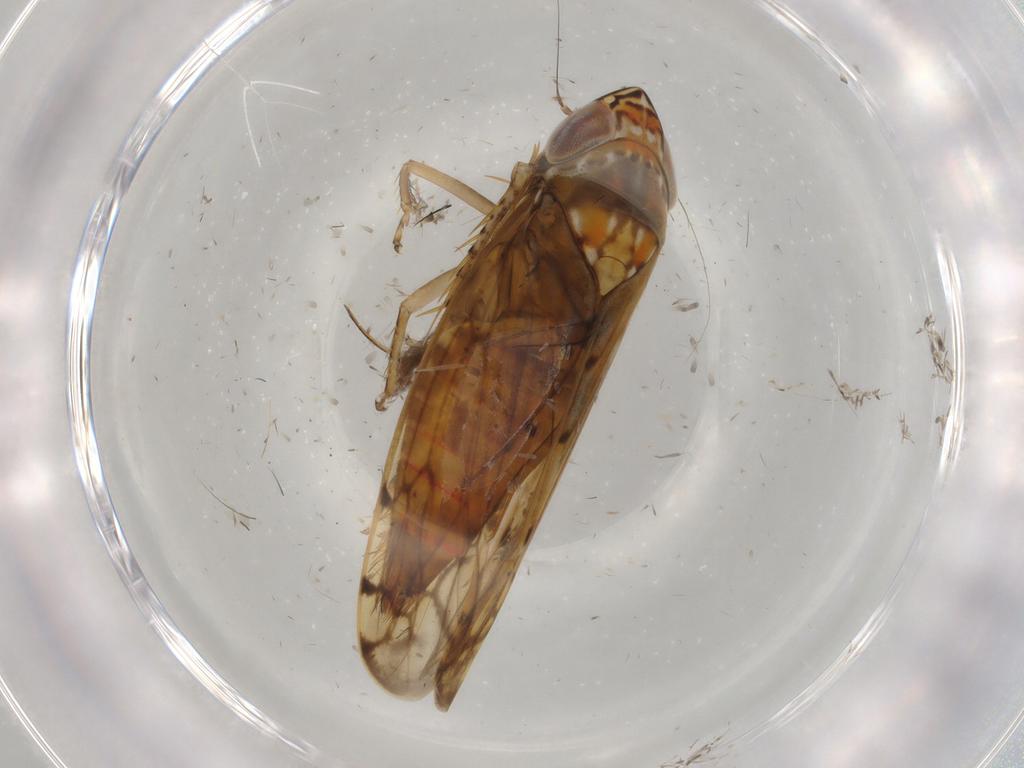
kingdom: Animalia
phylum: Arthropoda
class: Insecta
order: Hemiptera
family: Cicadellidae
